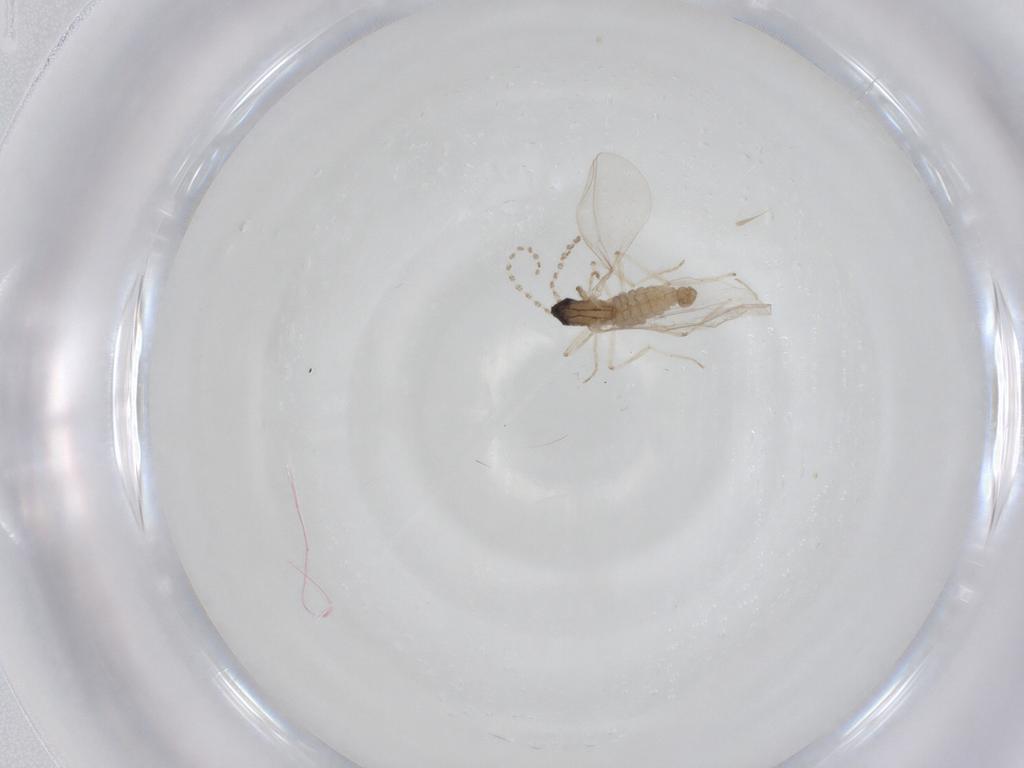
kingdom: Animalia
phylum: Arthropoda
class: Insecta
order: Diptera
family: Cecidomyiidae
